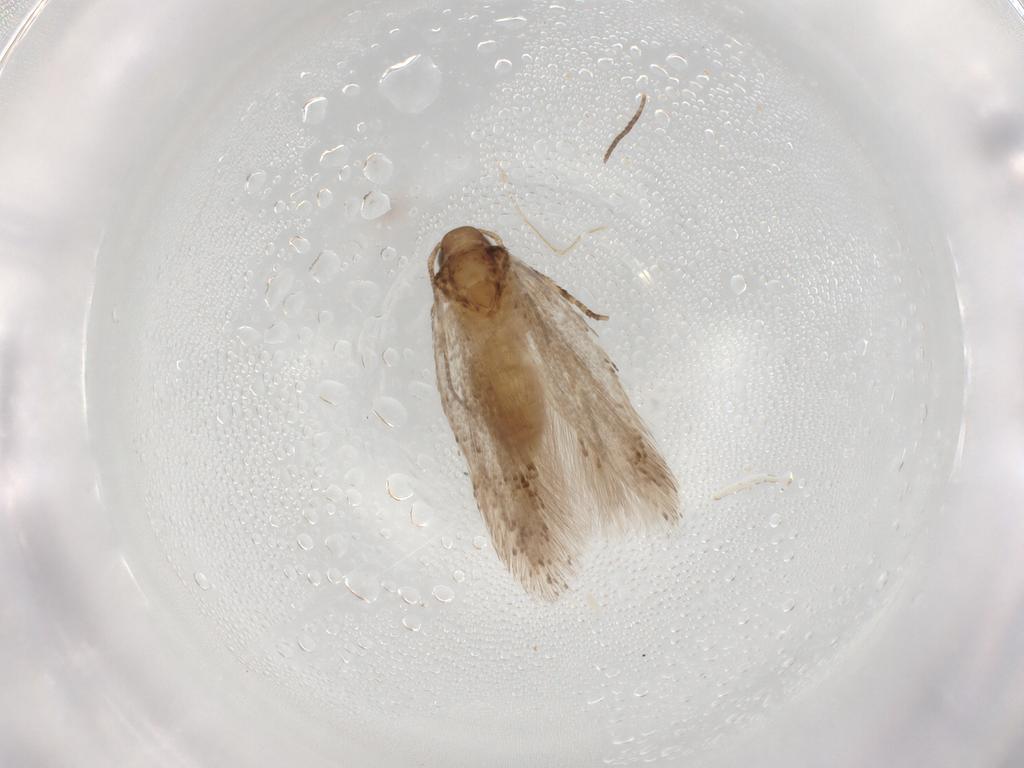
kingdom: Animalia
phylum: Arthropoda
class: Insecta
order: Lepidoptera
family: Gelechiidae
